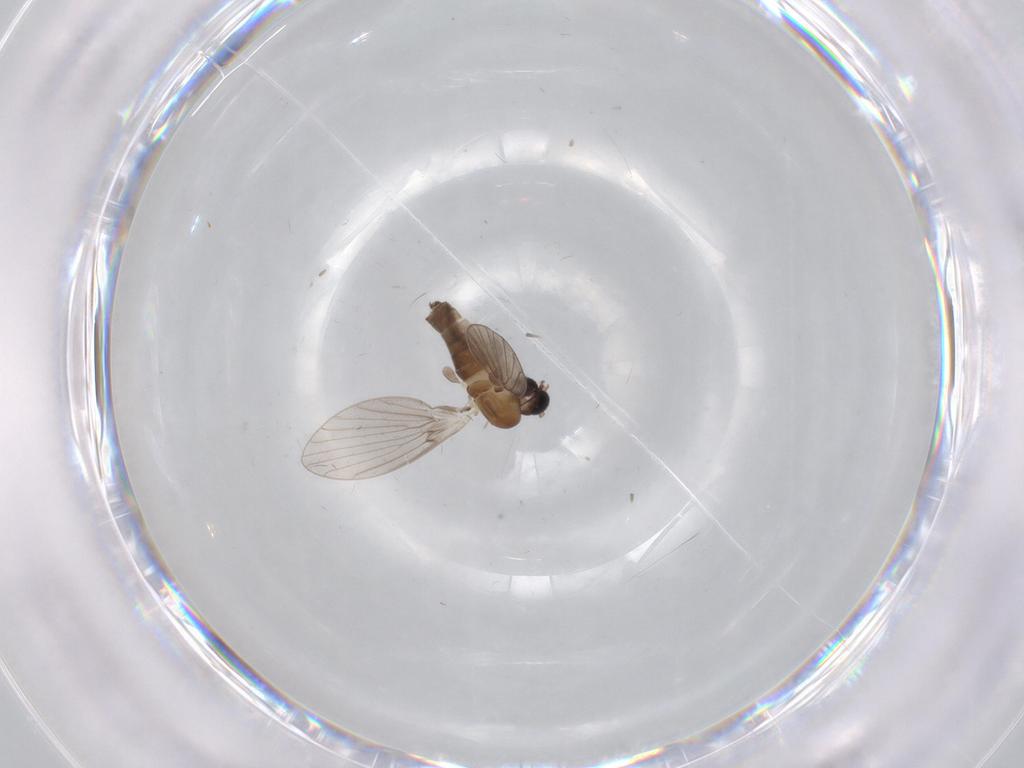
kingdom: Animalia
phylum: Arthropoda
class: Insecta
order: Diptera
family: Cecidomyiidae
